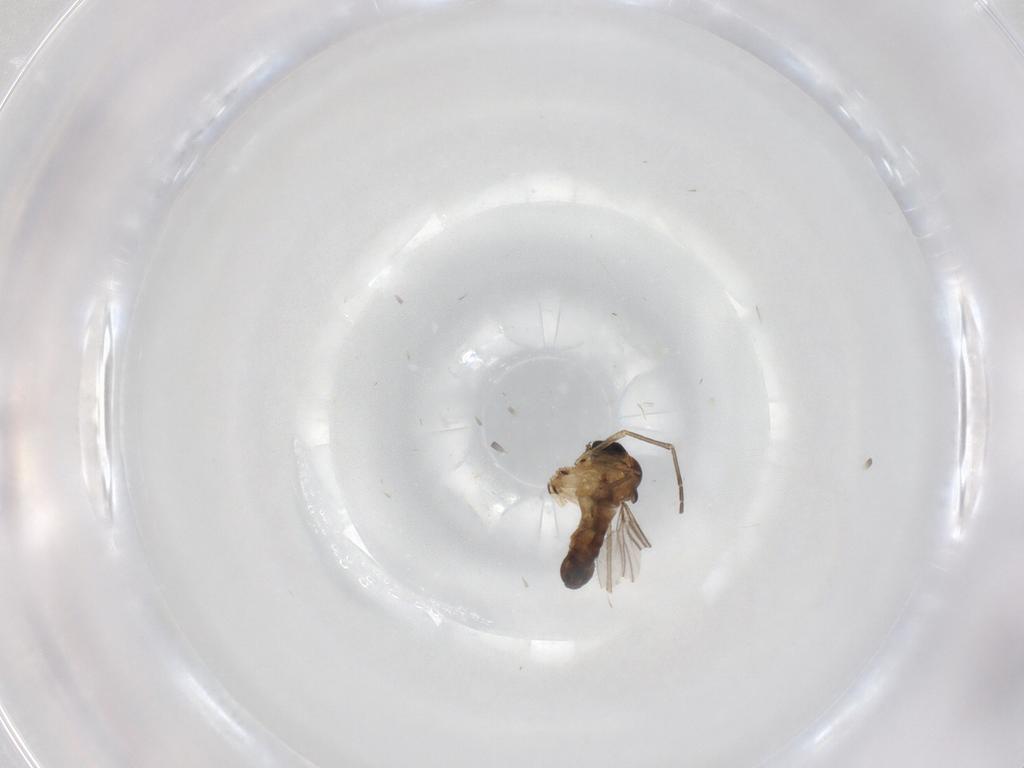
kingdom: Animalia
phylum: Arthropoda
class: Insecta
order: Diptera
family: Sciaridae
